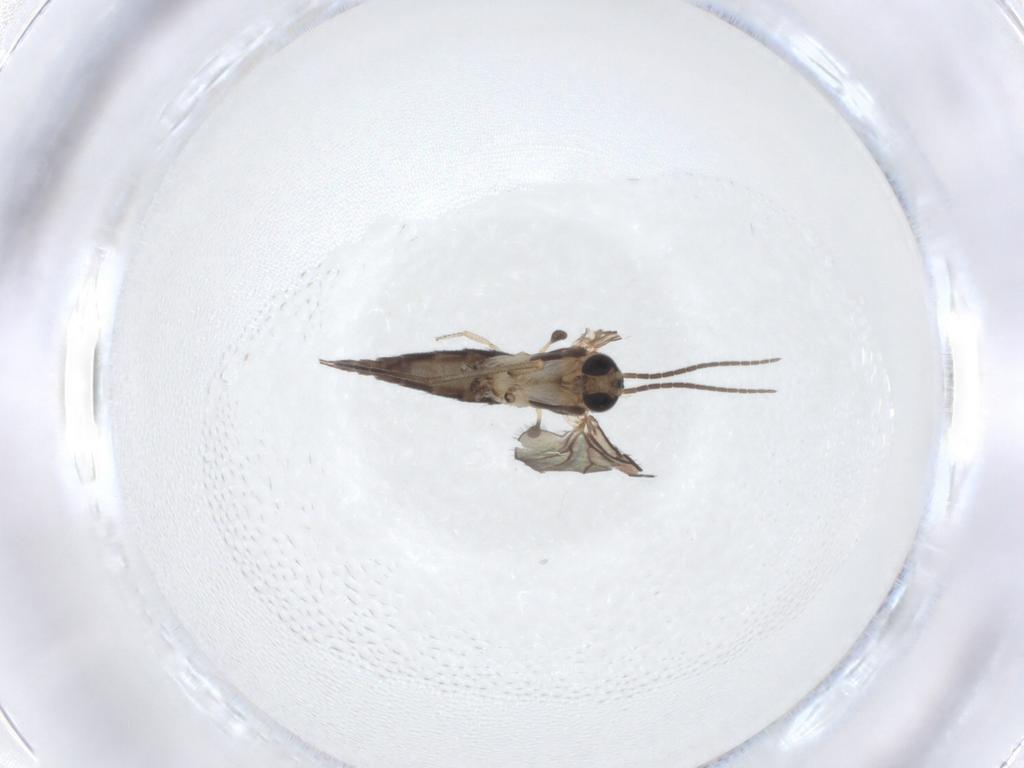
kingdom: Animalia
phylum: Arthropoda
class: Insecta
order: Diptera
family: Sciaridae
